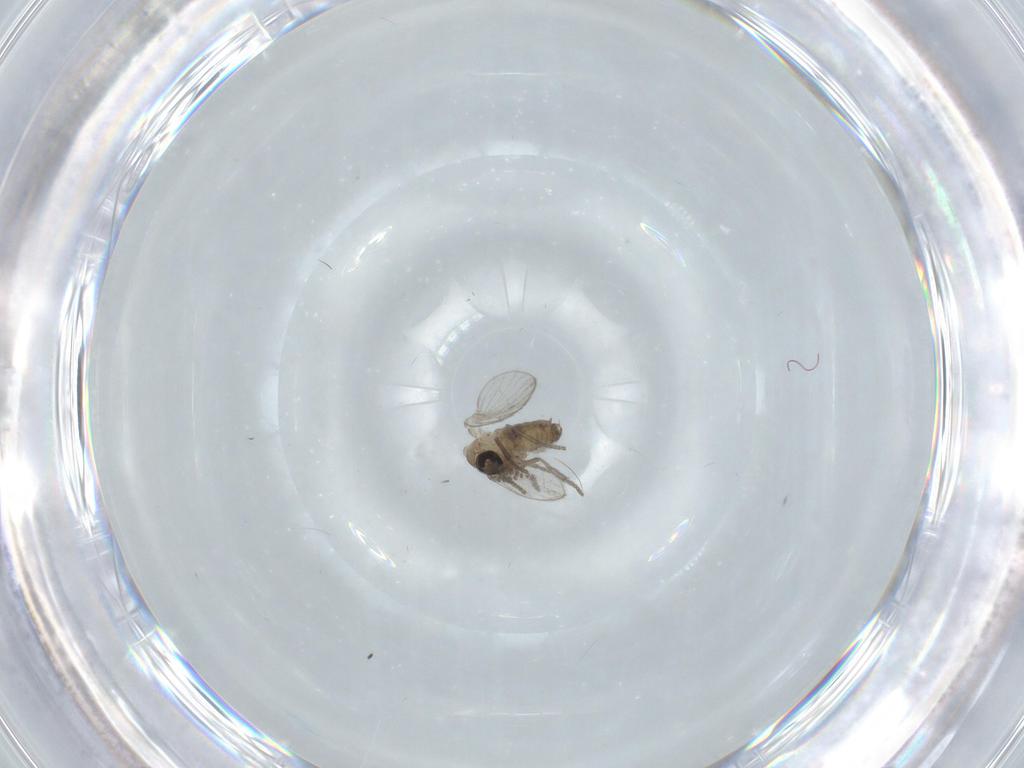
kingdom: Animalia
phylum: Arthropoda
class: Insecta
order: Diptera
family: Psychodidae
